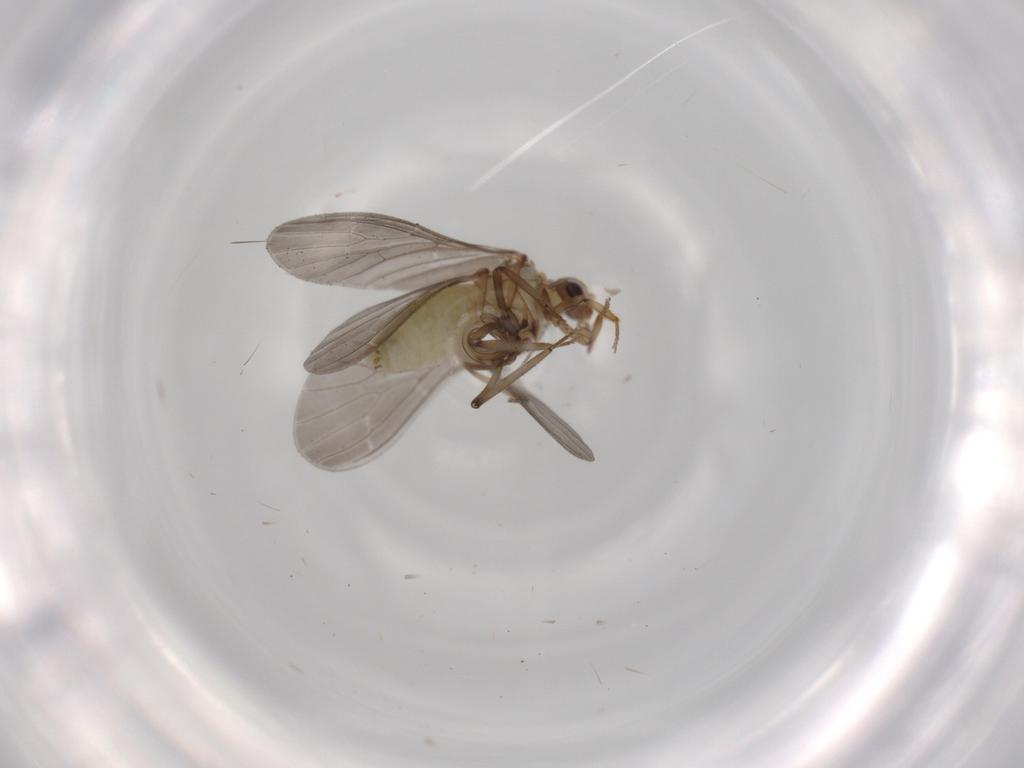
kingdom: Animalia
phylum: Arthropoda
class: Insecta
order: Neuroptera
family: Coniopterygidae
